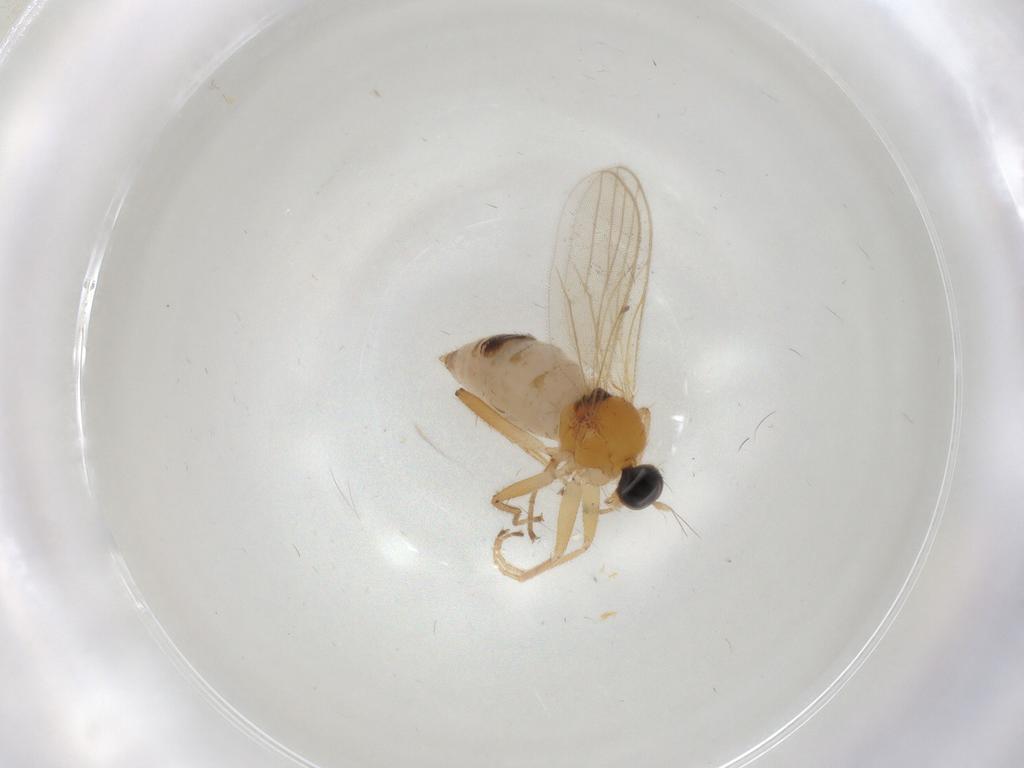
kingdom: Animalia
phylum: Arthropoda
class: Insecta
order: Diptera
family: Hybotidae
